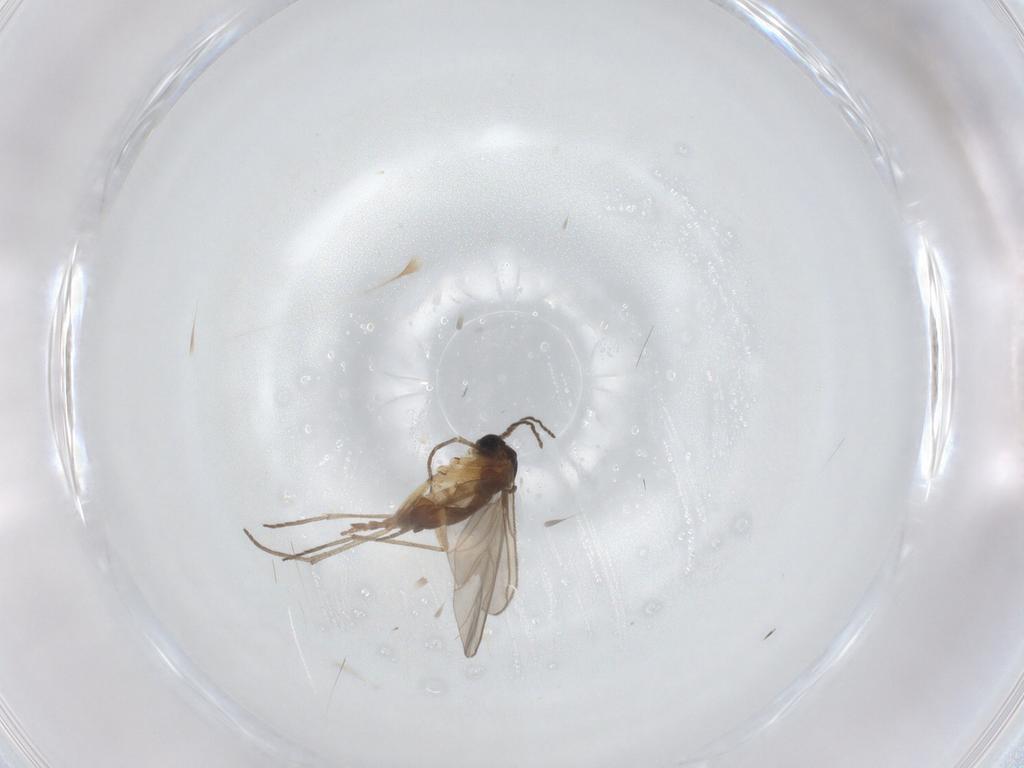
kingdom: Animalia
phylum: Arthropoda
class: Insecta
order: Diptera
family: Sciaridae
